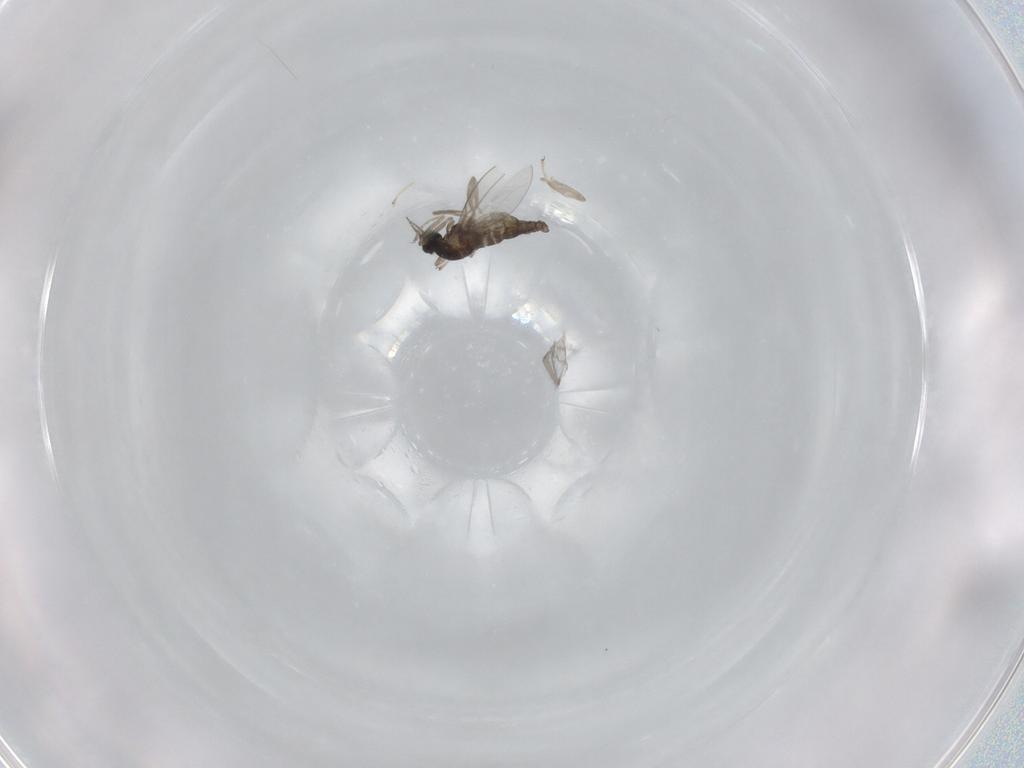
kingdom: Animalia
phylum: Arthropoda
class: Insecta
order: Diptera
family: Cecidomyiidae
